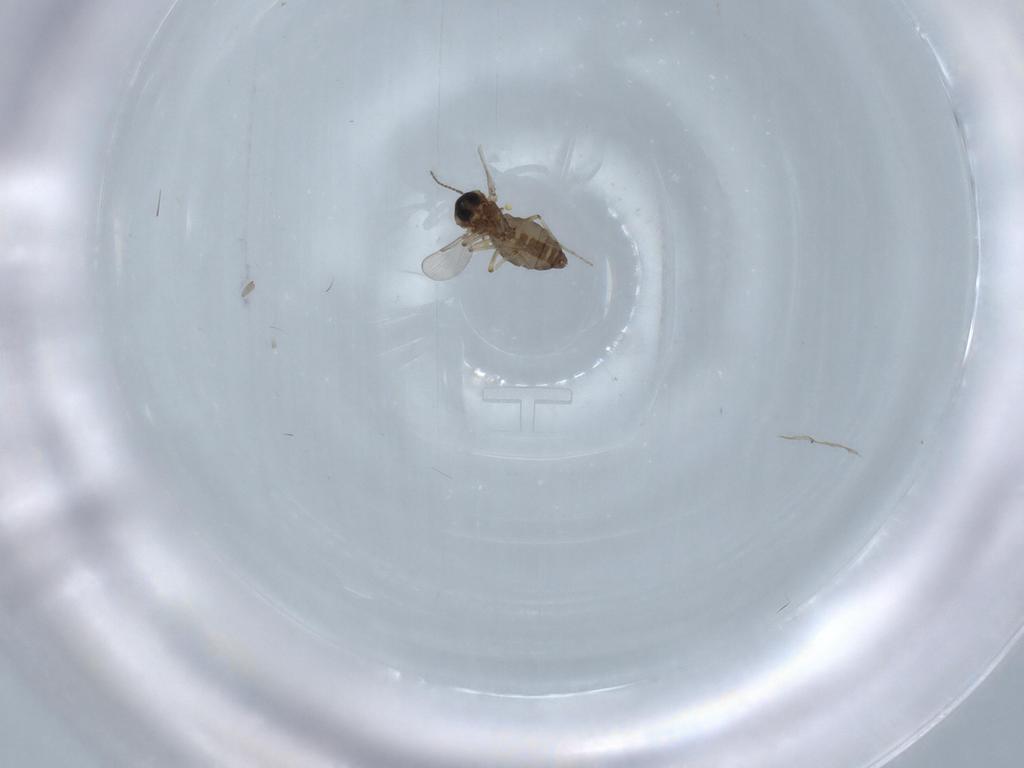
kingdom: Animalia
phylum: Arthropoda
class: Insecta
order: Diptera
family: Ceratopogonidae
